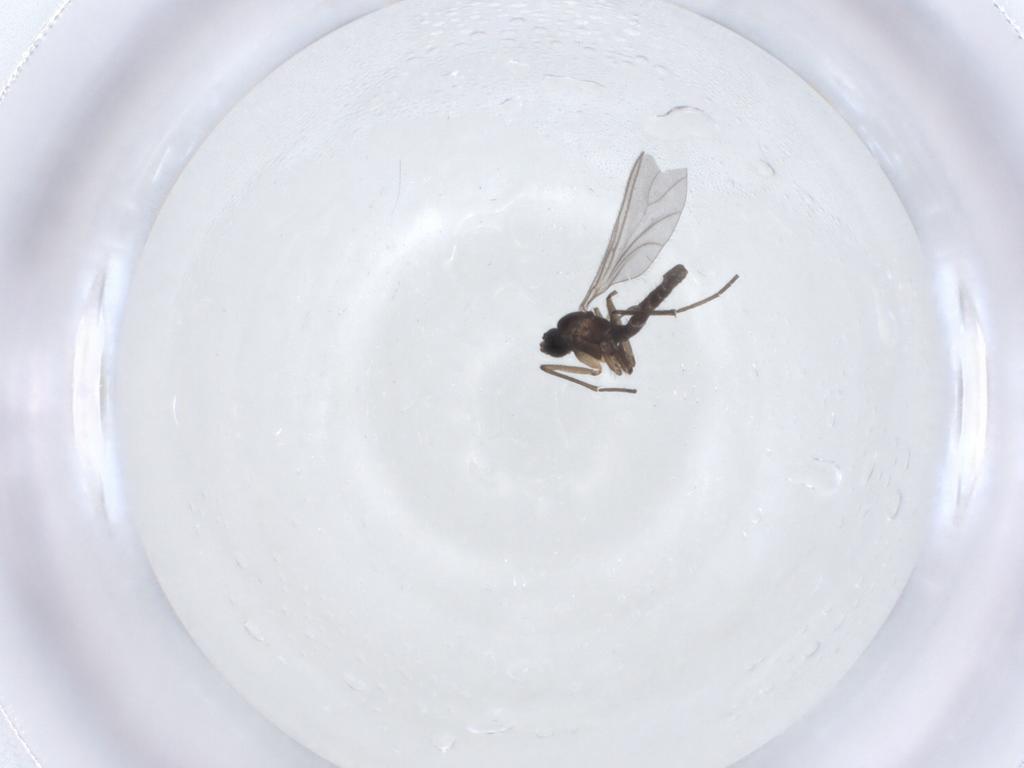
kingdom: Animalia
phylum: Arthropoda
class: Insecta
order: Diptera
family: Sciaridae
